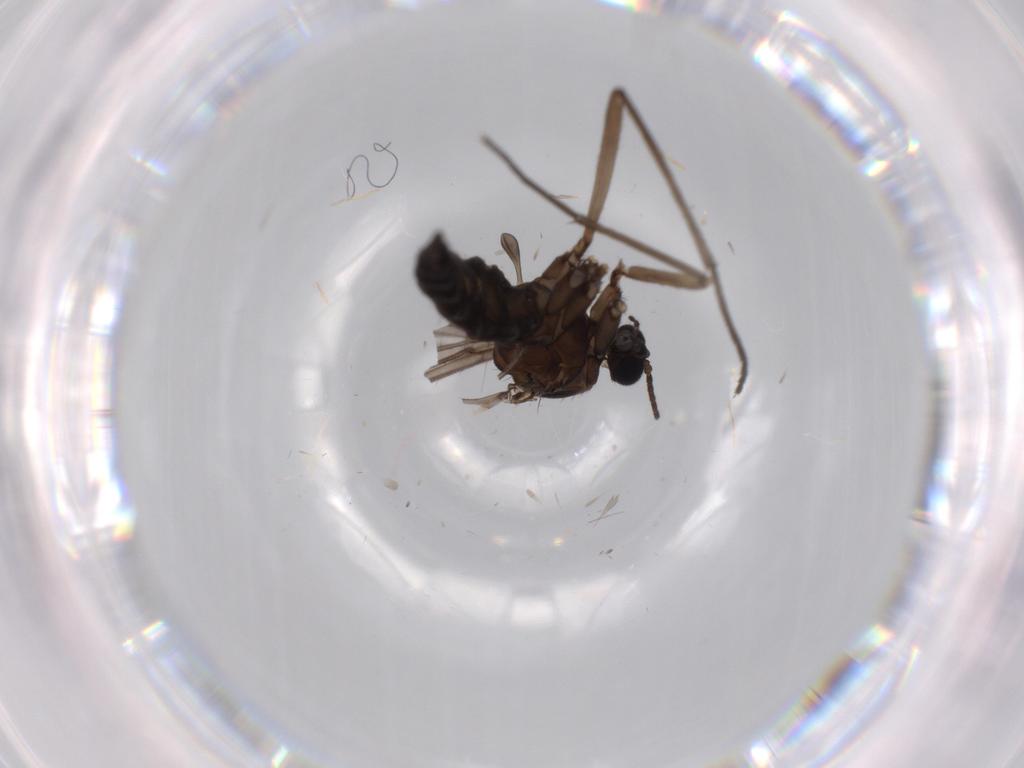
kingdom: Animalia
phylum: Arthropoda
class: Insecta
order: Diptera
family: Sciaridae
